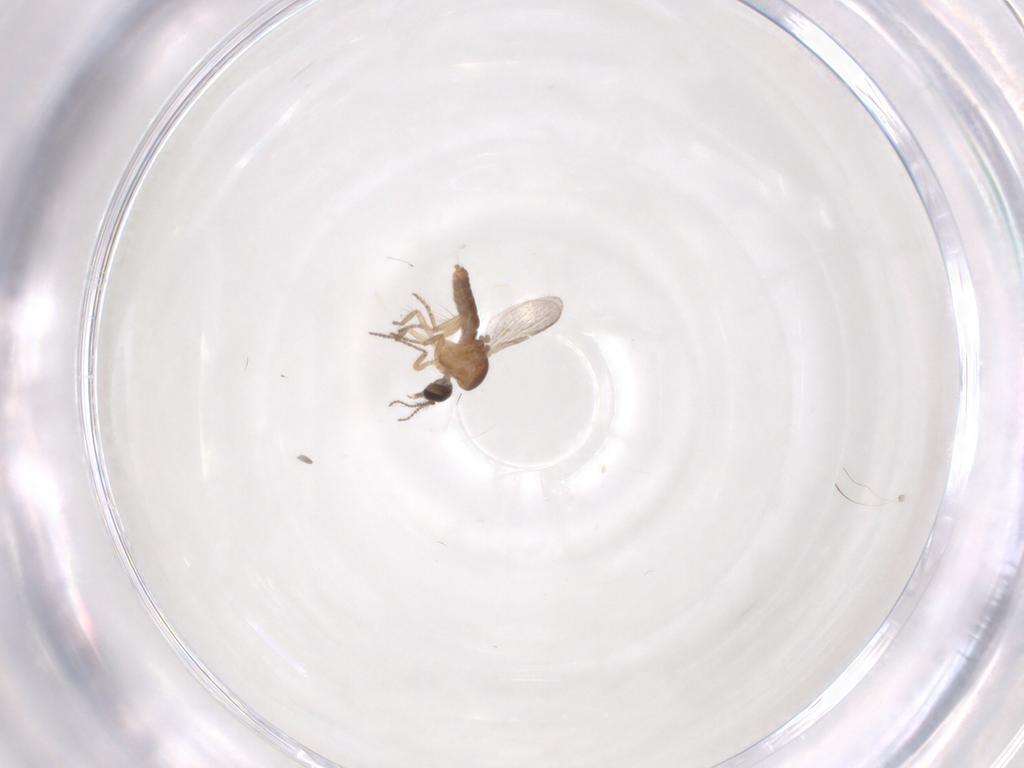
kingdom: Animalia
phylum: Arthropoda
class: Insecta
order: Diptera
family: Ceratopogonidae
